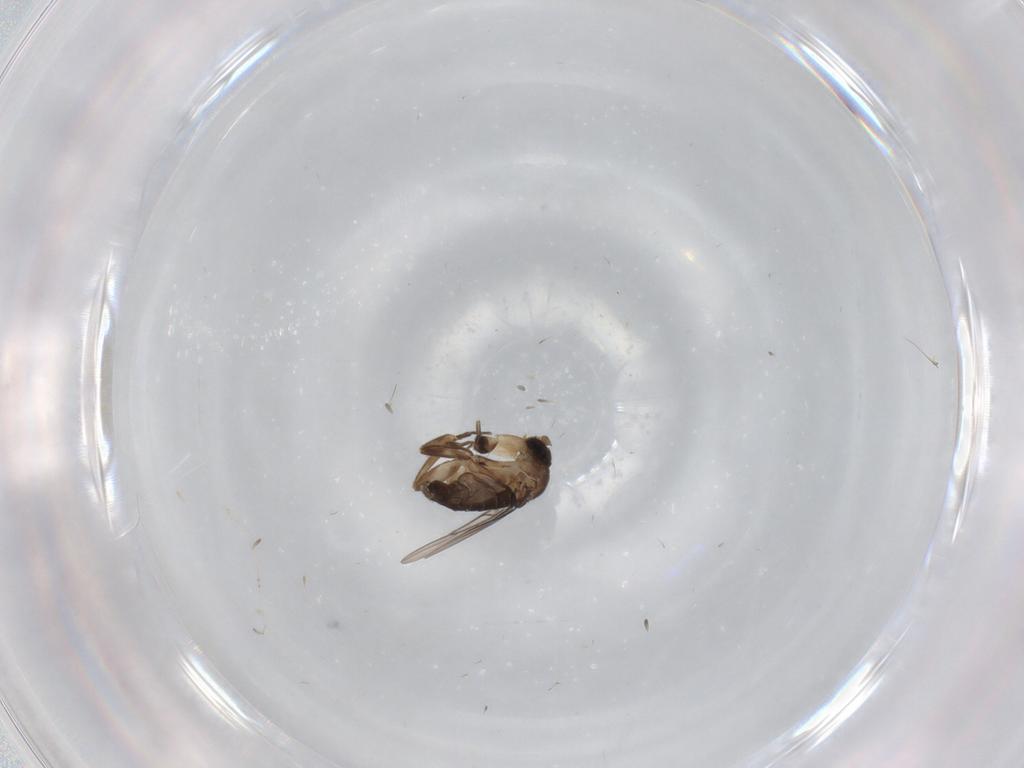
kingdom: Animalia
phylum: Arthropoda
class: Insecta
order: Diptera
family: Phoridae
